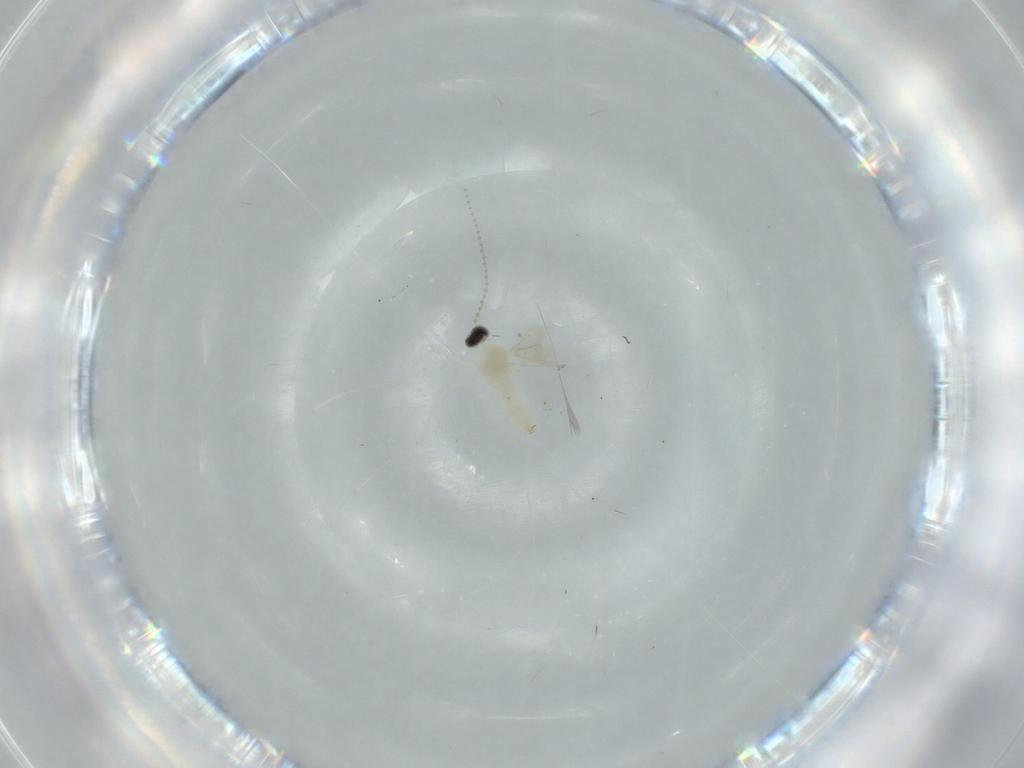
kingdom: Animalia
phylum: Arthropoda
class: Insecta
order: Diptera
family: Cecidomyiidae
